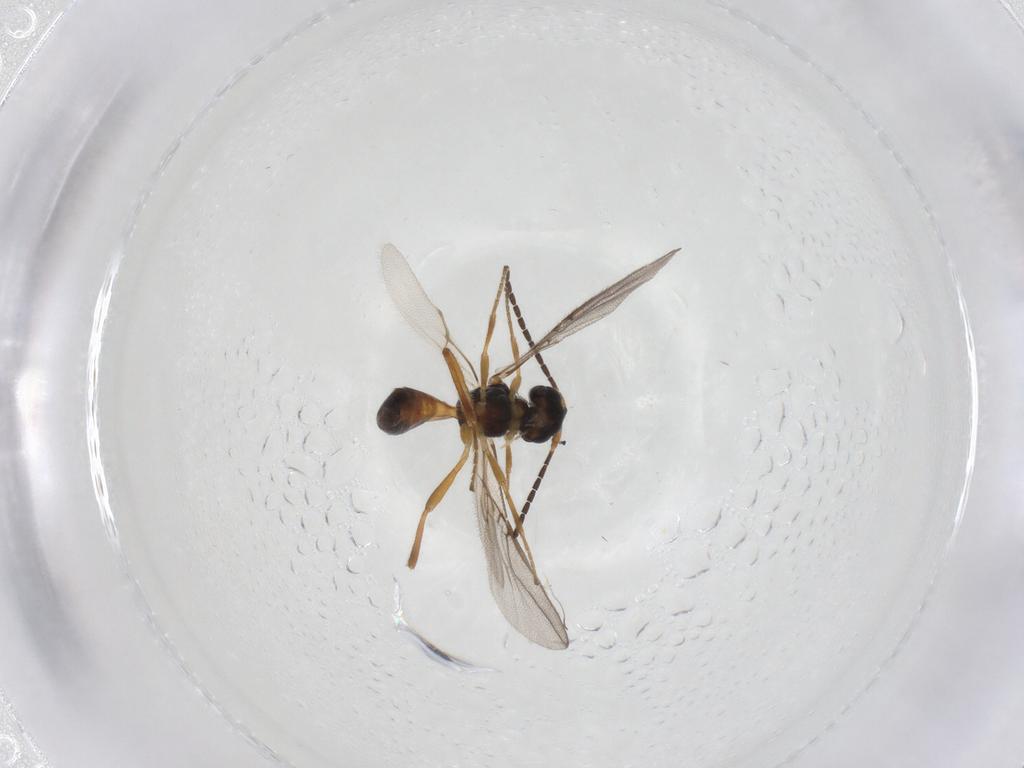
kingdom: Animalia
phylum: Arthropoda
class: Insecta
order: Hymenoptera
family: Braconidae
